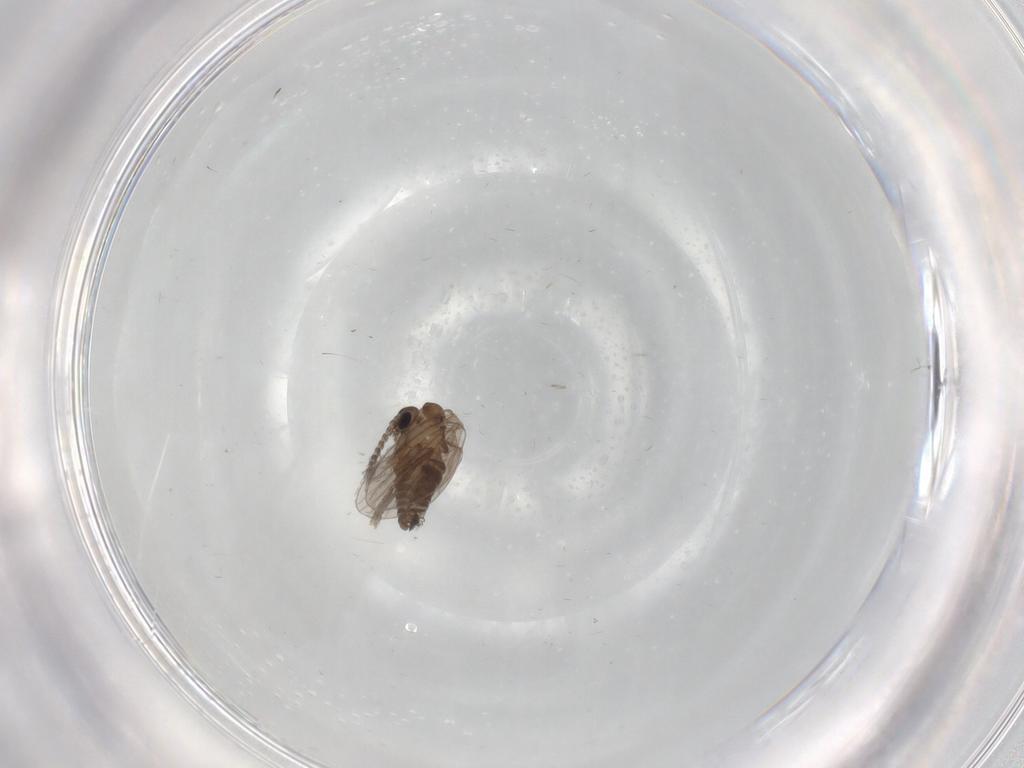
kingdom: Animalia
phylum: Arthropoda
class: Insecta
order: Diptera
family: Psychodidae
